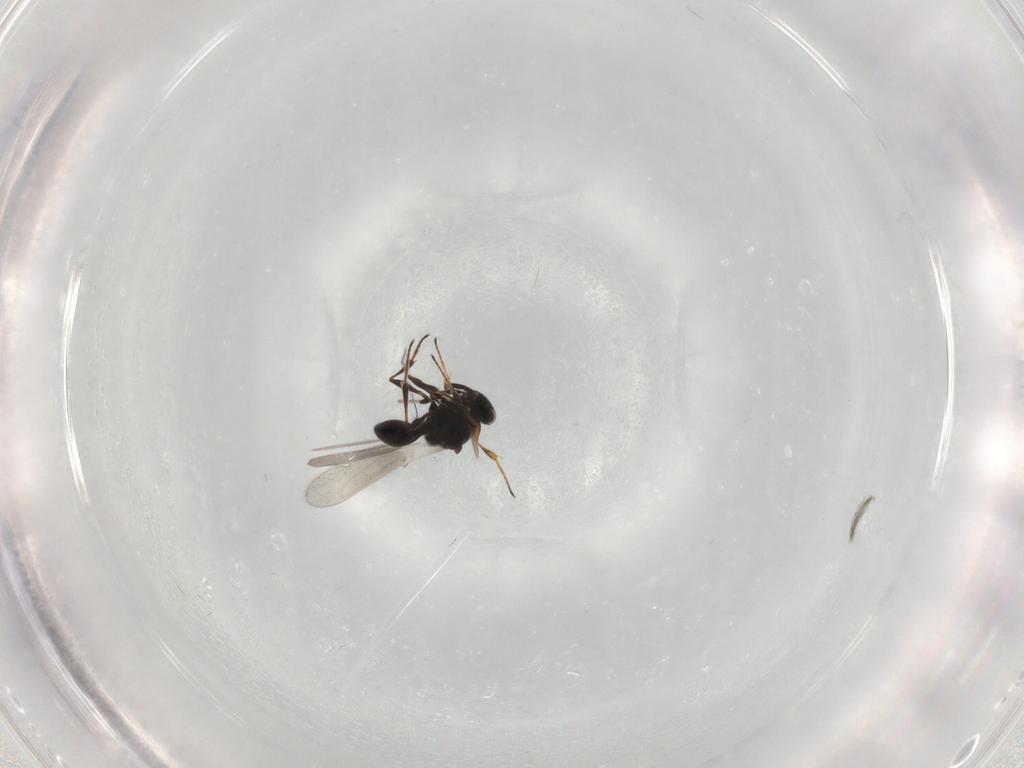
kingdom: Animalia
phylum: Arthropoda
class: Insecta
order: Hymenoptera
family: Platygastridae
